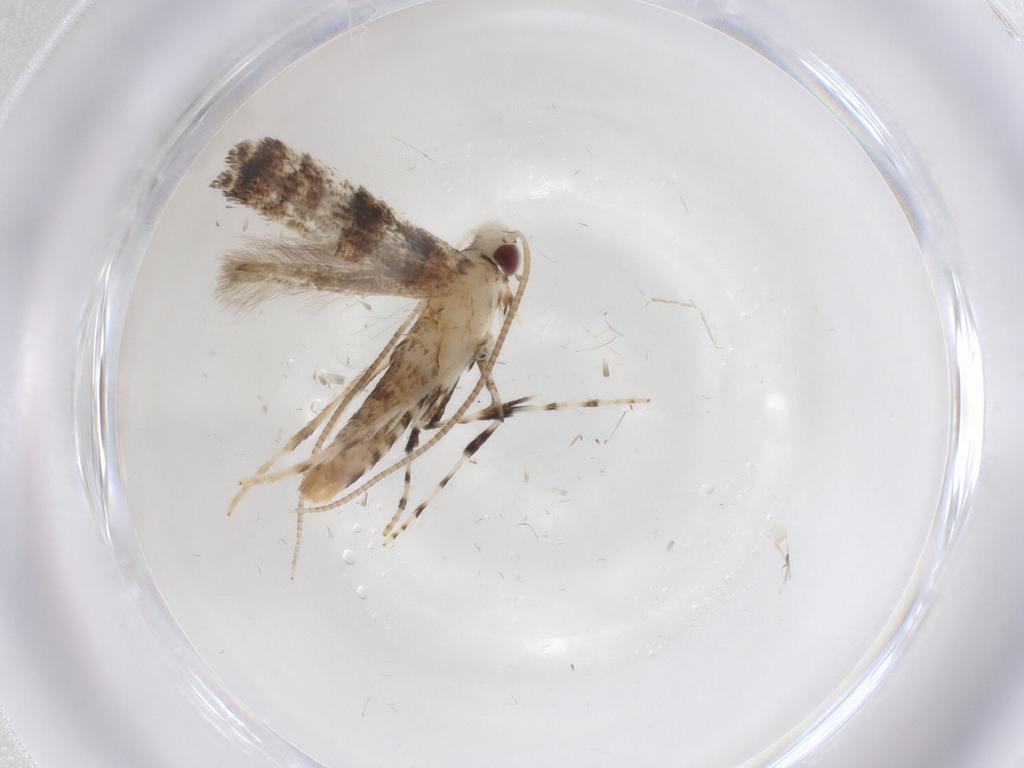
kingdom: Animalia
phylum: Arthropoda
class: Insecta
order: Lepidoptera
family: Gracillariidae
